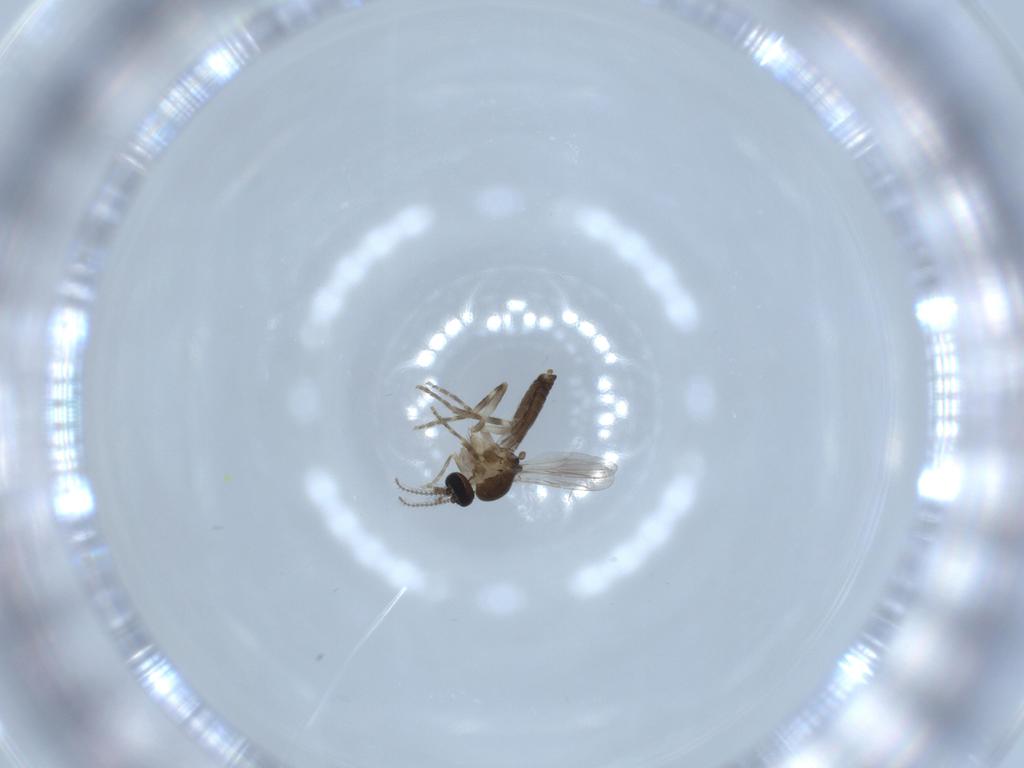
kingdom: Animalia
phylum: Arthropoda
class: Insecta
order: Diptera
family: Ceratopogonidae
